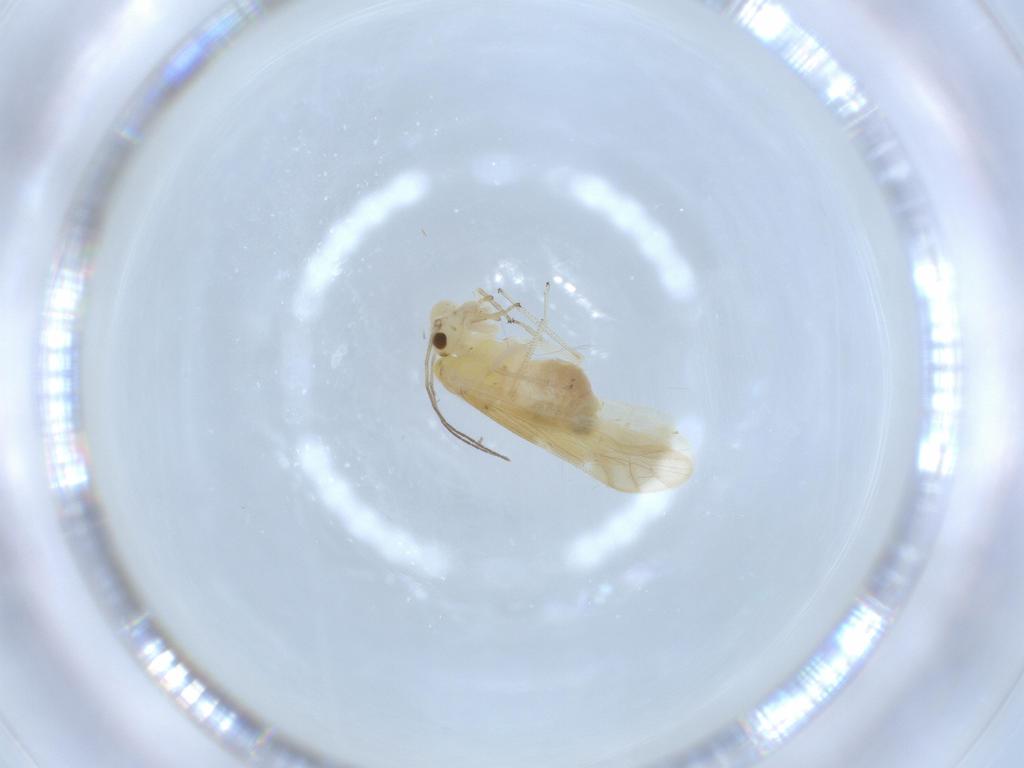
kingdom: Animalia
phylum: Arthropoda
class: Insecta
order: Psocodea
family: Caeciliusidae
